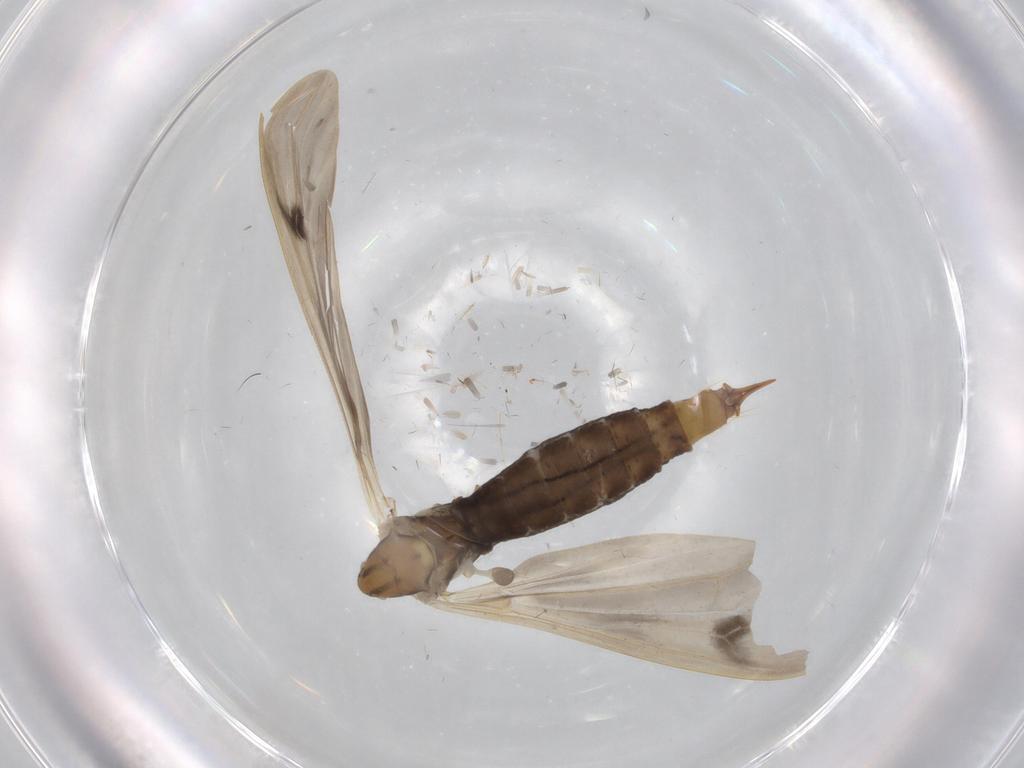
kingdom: Animalia
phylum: Arthropoda
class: Insecta
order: Diptera
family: Limoniidae
